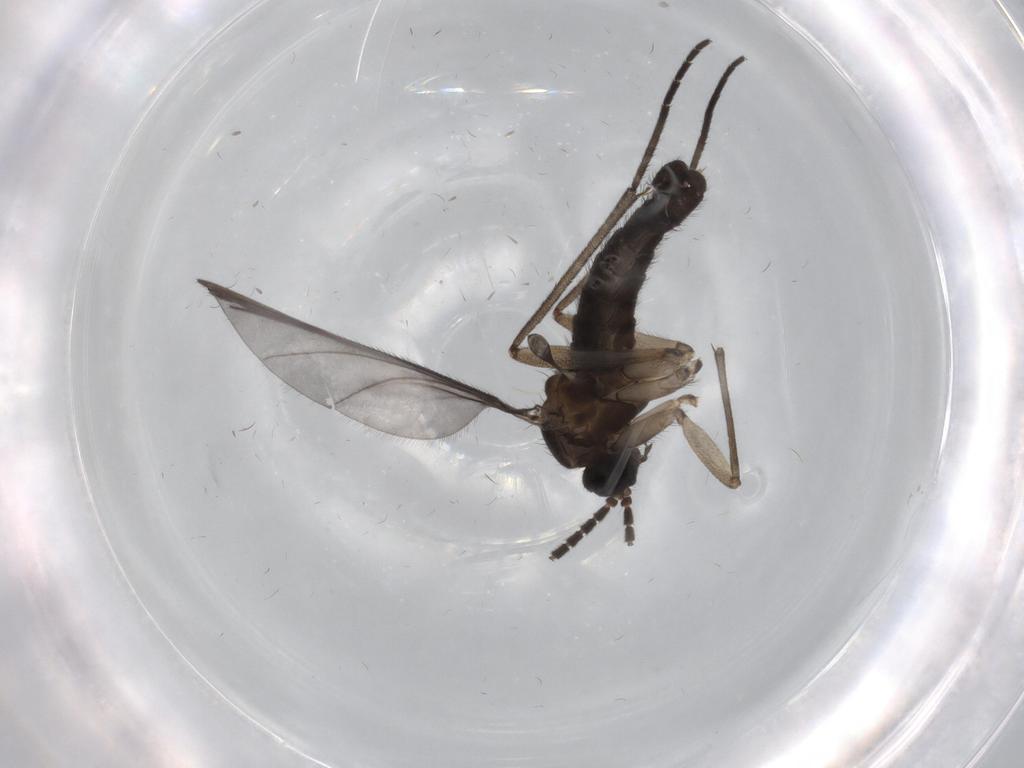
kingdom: Animalia
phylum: Arthropoda
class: Insecta
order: Diptera
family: Sciaridae
